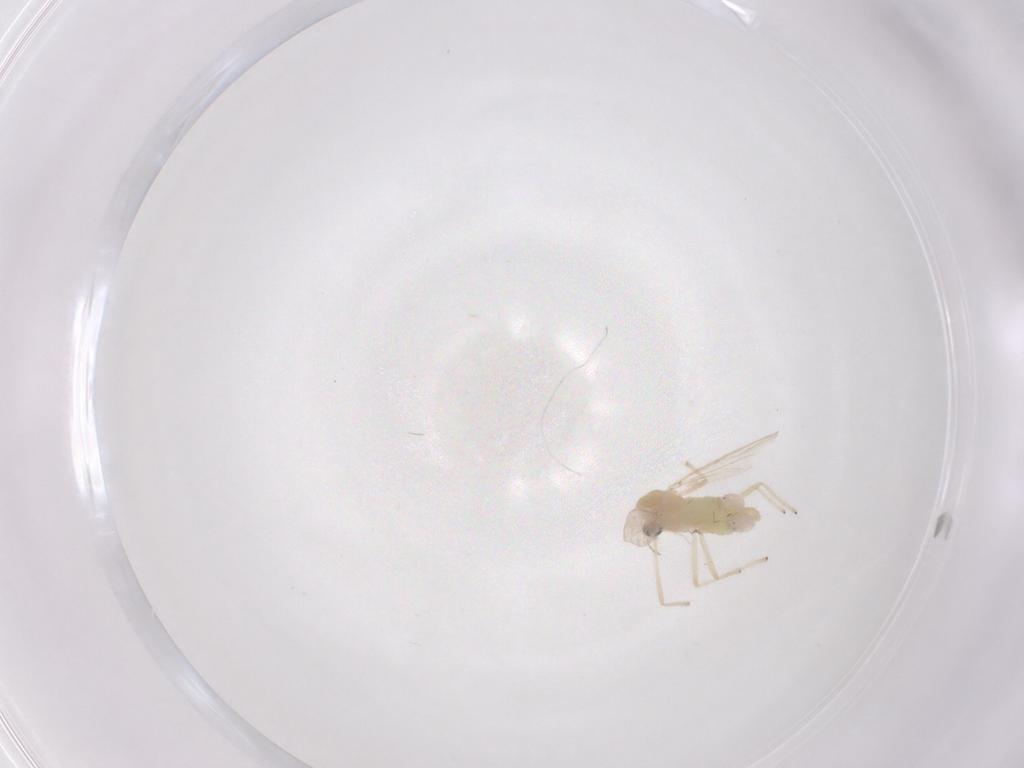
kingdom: Animalia
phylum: Arthropoda
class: Insecta
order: Diptera
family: Chironomidae
